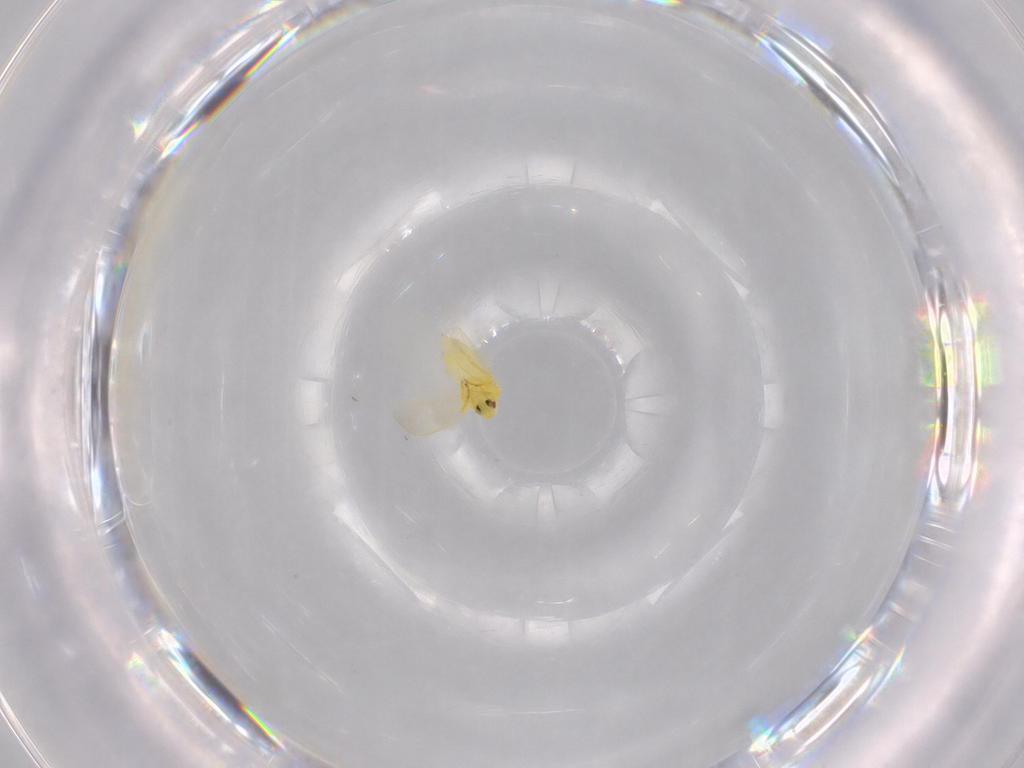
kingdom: Animalia
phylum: Arthropoda
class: Insecta
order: Hemiptera
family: Aleyrodidae
